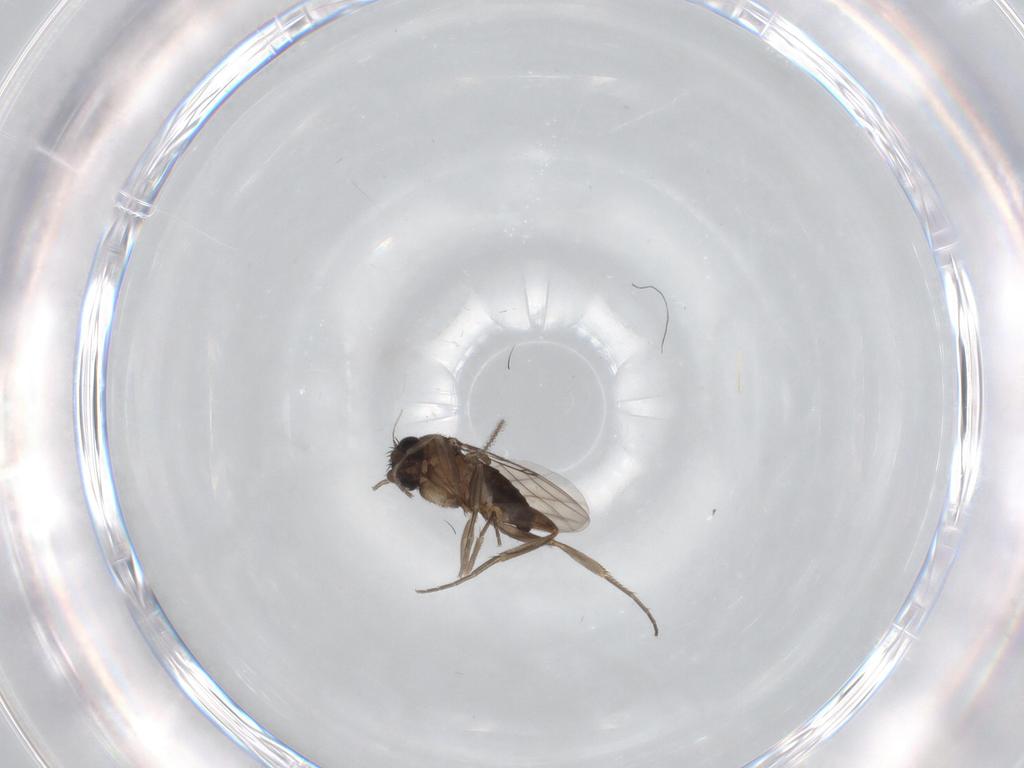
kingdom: Animalia
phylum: Arthropoda
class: Insecta
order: Diptera
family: Phoridae
